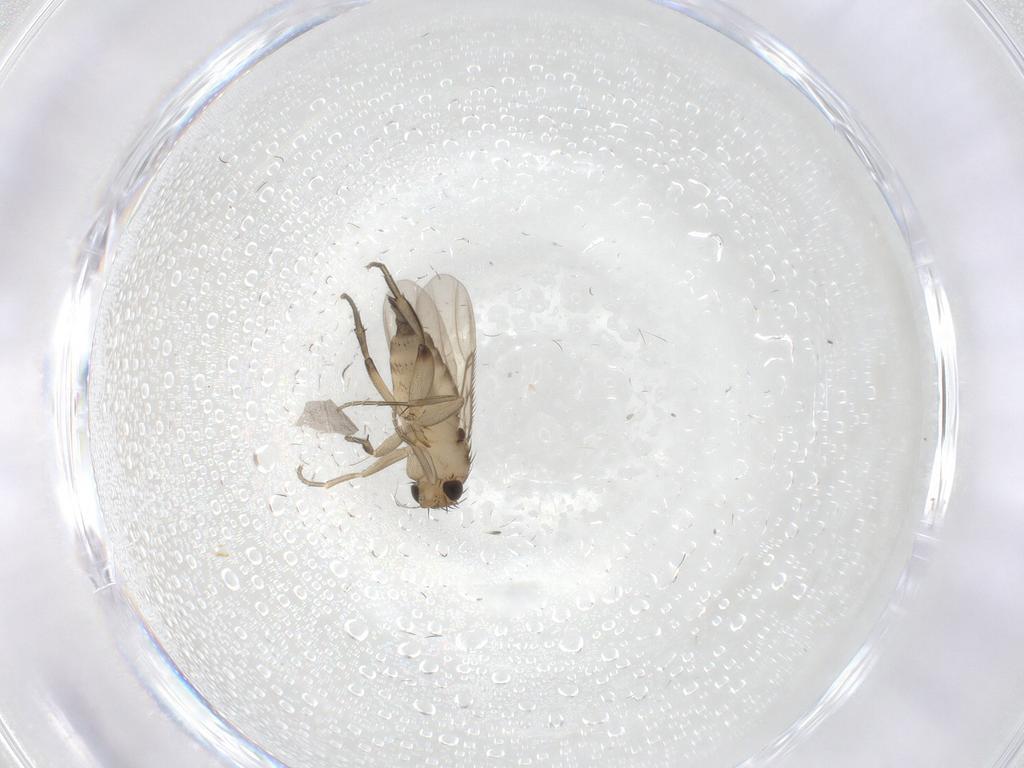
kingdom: Animalia
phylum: Arthropoda
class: Insecta
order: Diptera
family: Phoridae
